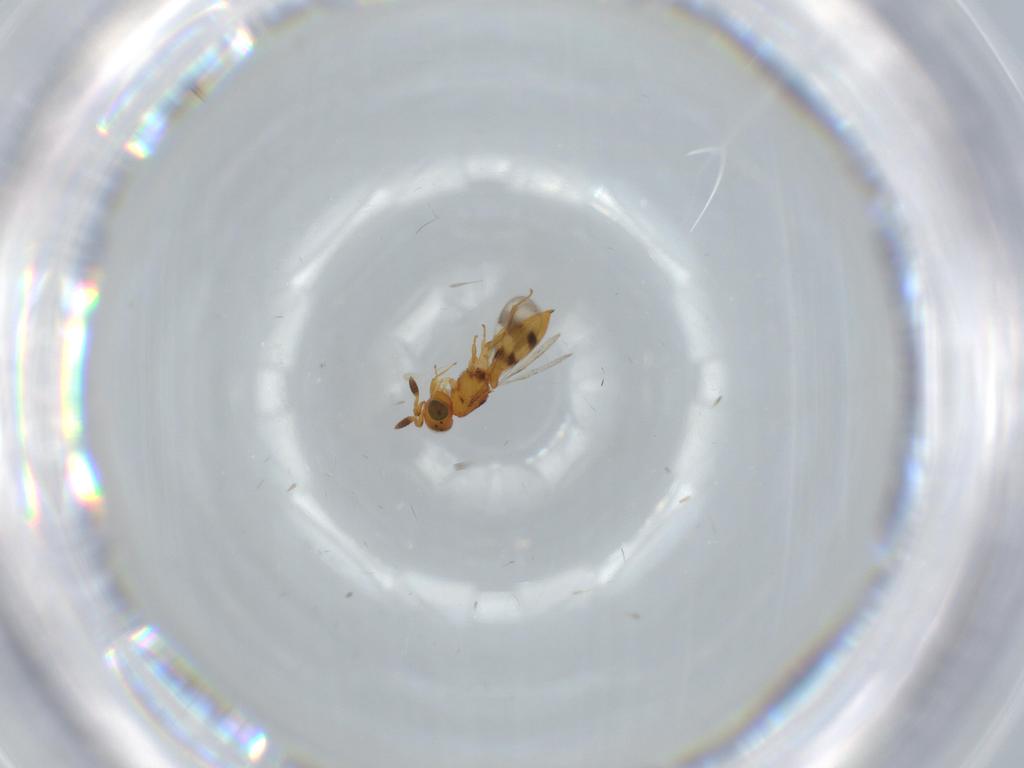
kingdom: Animalia
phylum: Arthropoda
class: Insecta
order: Hymenoptera
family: Scelionidae
